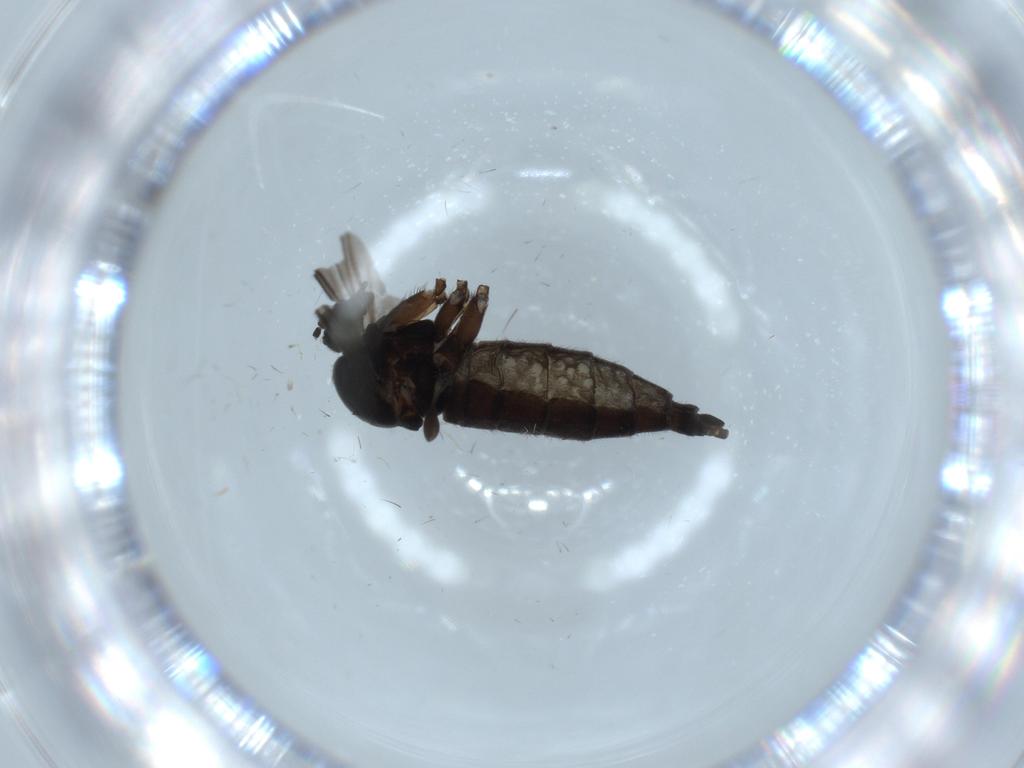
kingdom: Animalia
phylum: Arthropoda
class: Insecta
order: Diptera
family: Sciaridae
